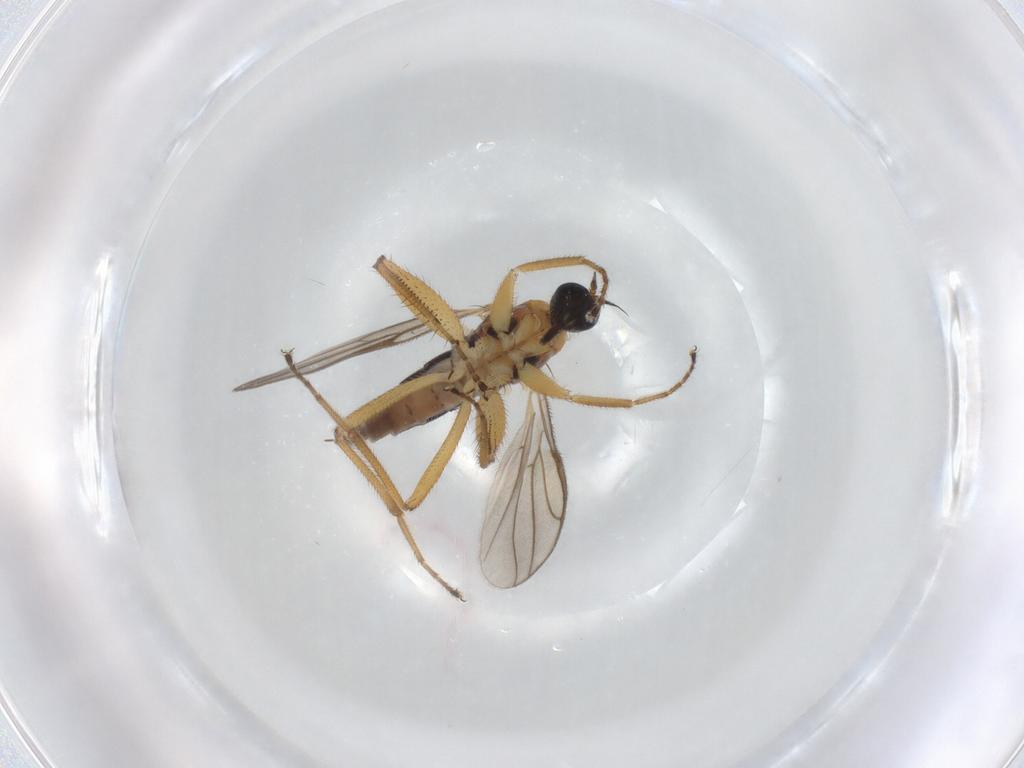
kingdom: Animalia
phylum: Arthropoda
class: Insecta
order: Diptera
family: Hybotidae
